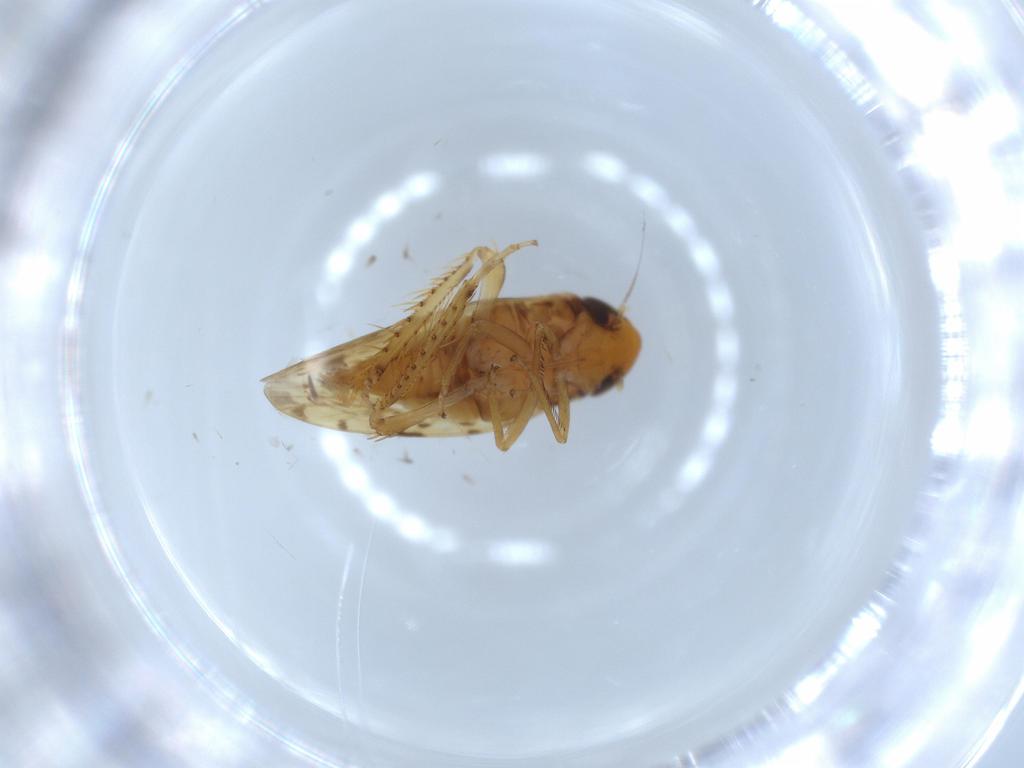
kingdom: Animalia
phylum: Arthropoda
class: Insecta
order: Hemiptera
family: Cicadellidae
